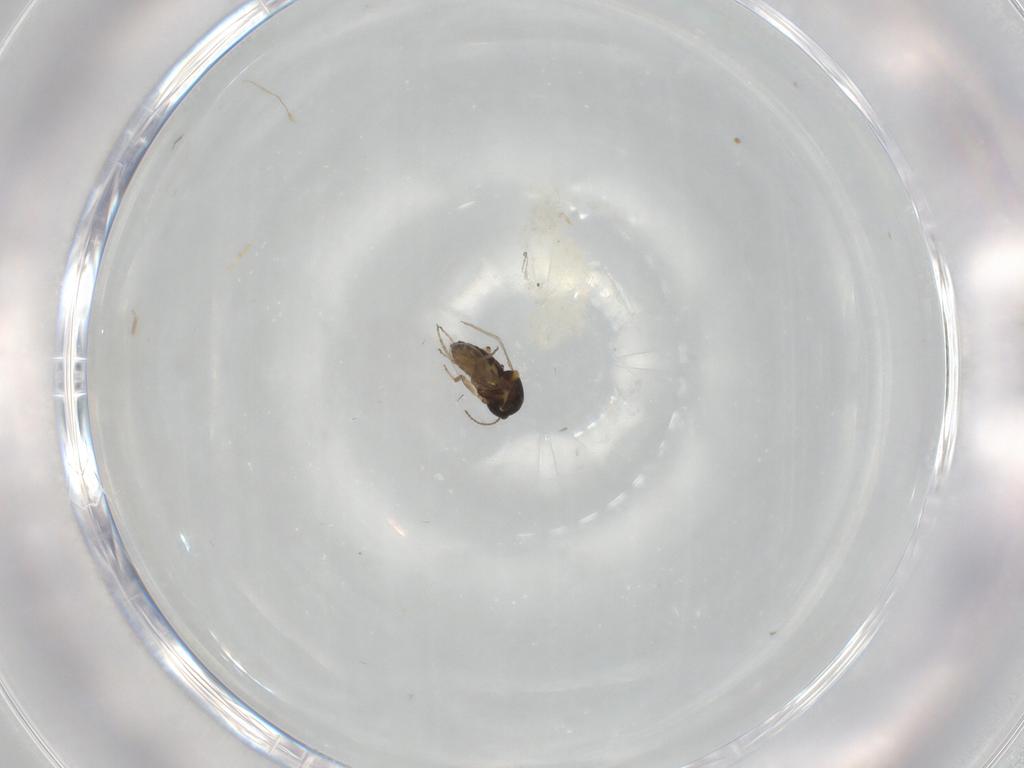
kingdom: Animalia
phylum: Arthropoda
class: Insecta
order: Diptera
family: Ceratopogonidae
